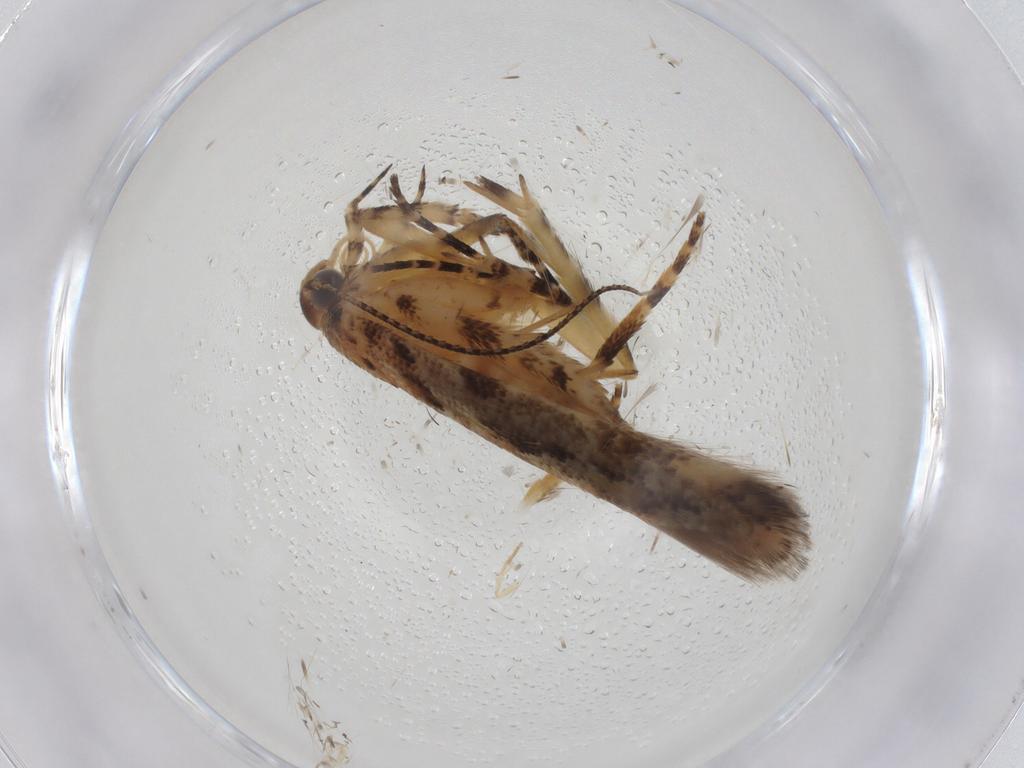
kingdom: Animalia
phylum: Arthropoda
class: Insecta
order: Lepidoptera
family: Gelechiidae
